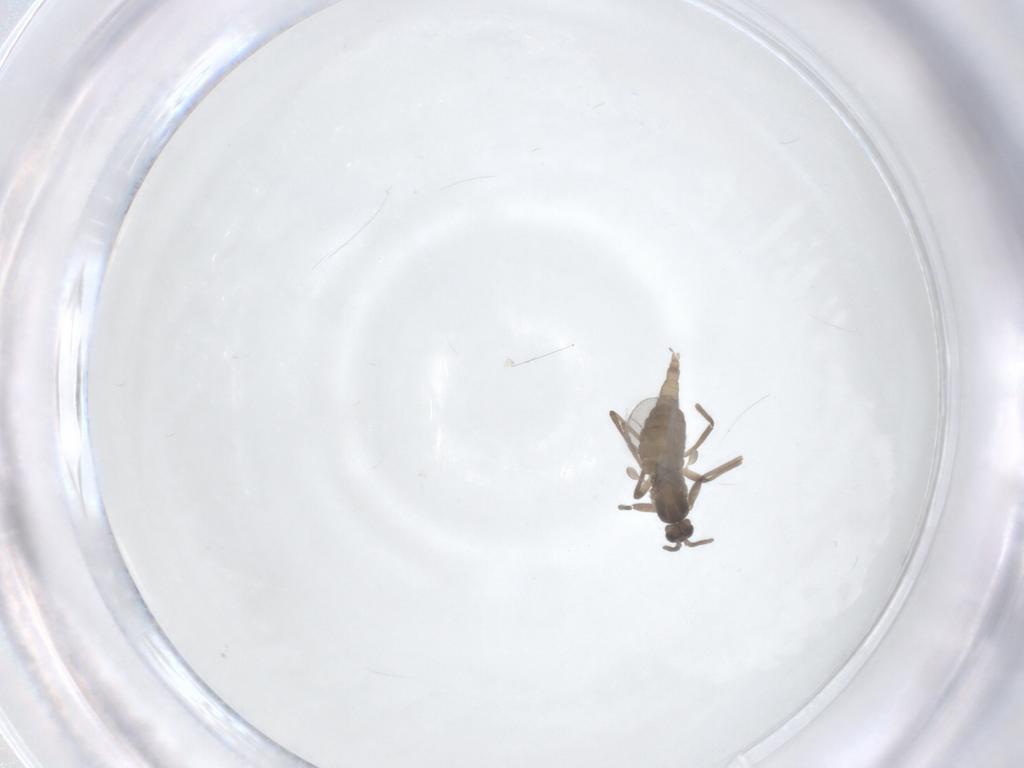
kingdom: Animalia
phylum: Arthropoda
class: Insecta
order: Diptera
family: Cecidomyiidae
